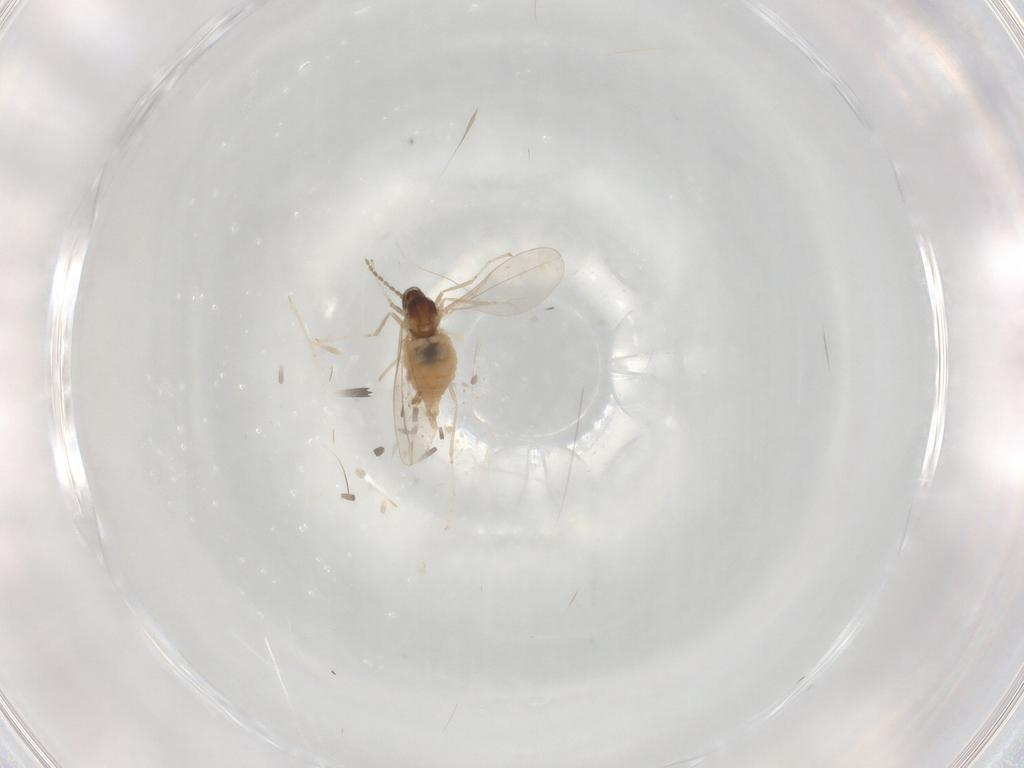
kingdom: Animalia
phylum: Arthropoda
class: Insecta
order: Diptera
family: Cecidomyiidae
